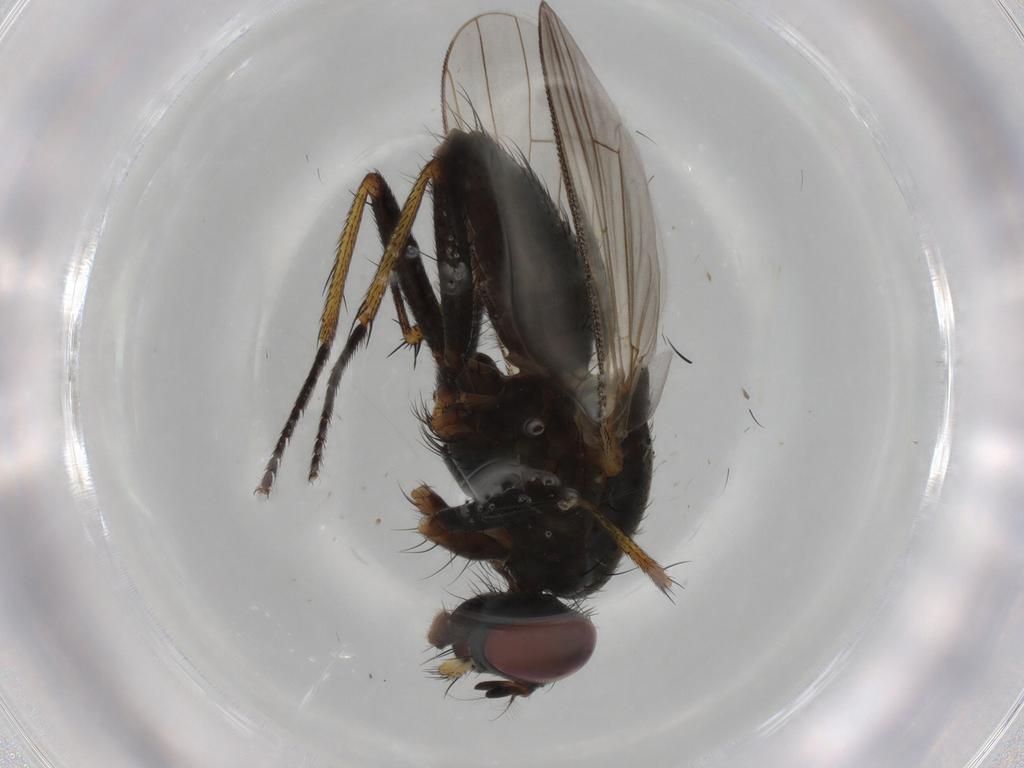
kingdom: Animalia
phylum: Arthropoda
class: Insecta
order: Diptera
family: Muscidae
